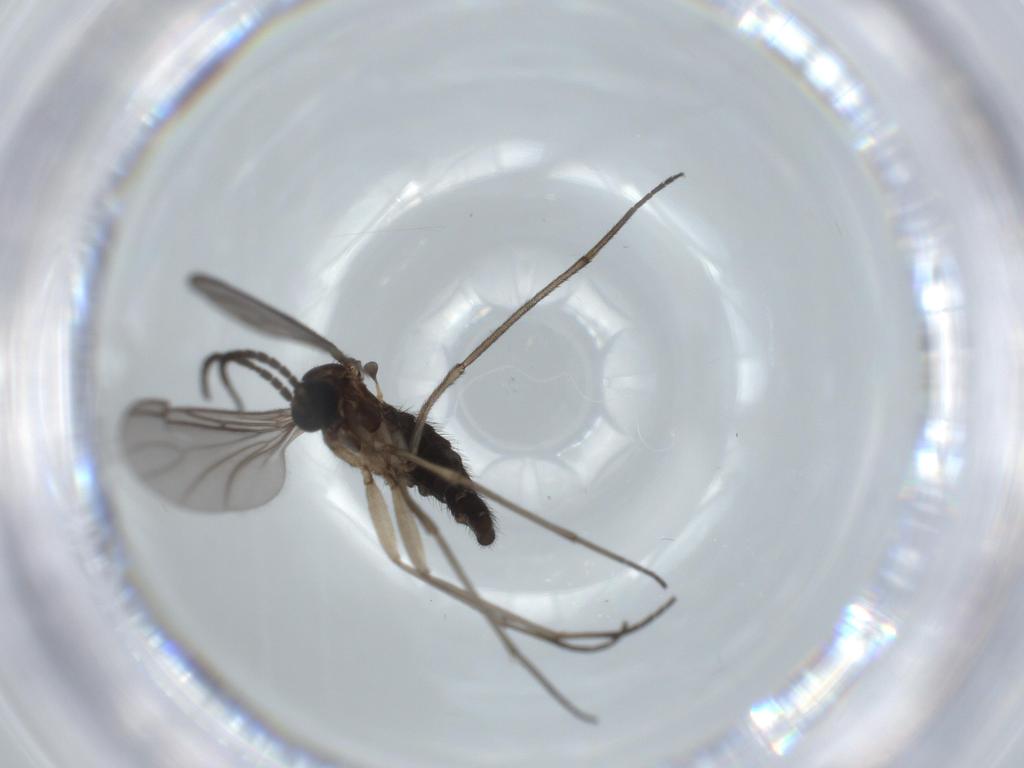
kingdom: Animalia
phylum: Arthropoda
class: Insecta
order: Diptera
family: Sciaridae
